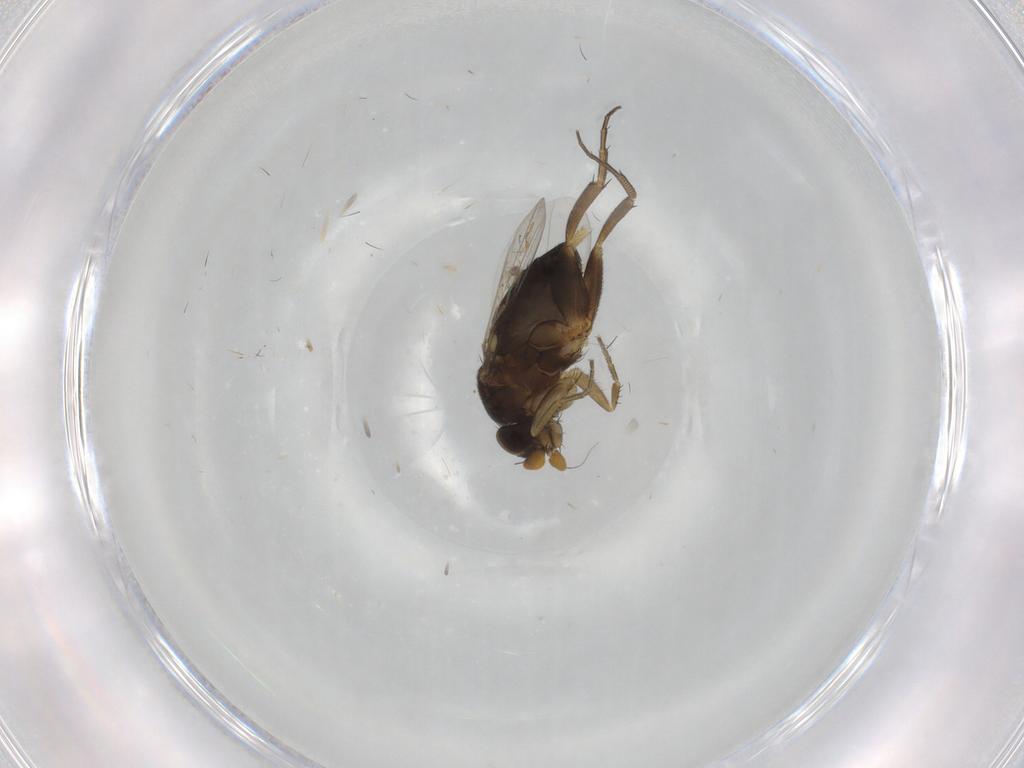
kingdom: Animalia
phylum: Arthropoda
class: Insecta
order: Diptera
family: Phoridae
